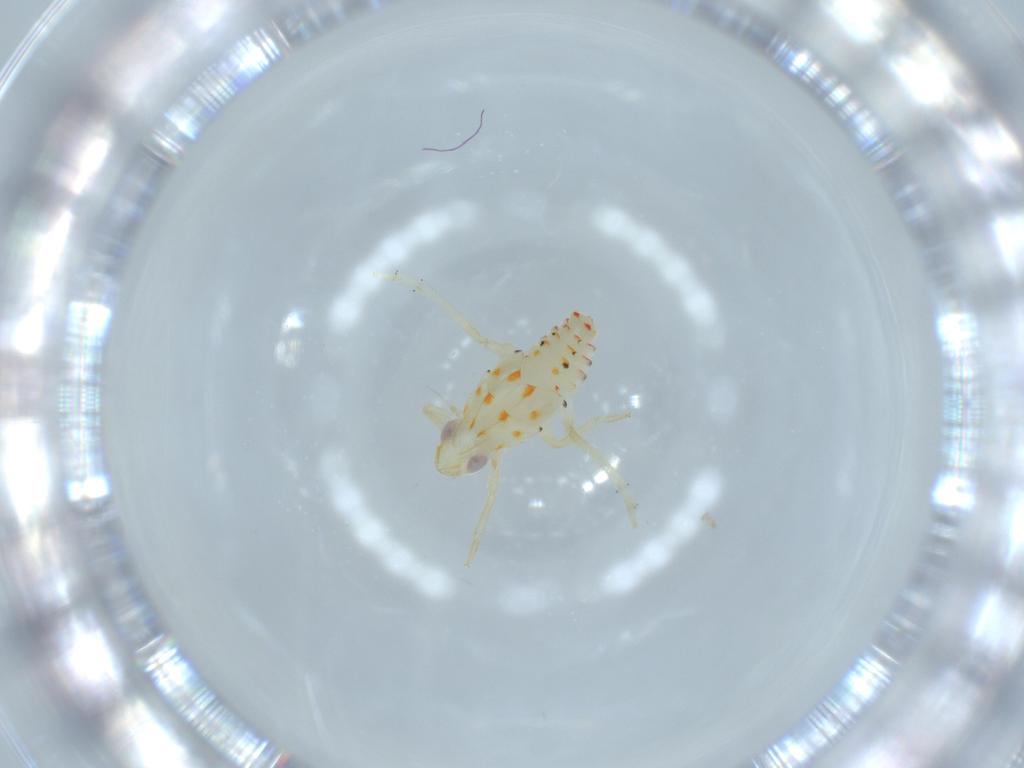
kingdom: Animalia
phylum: Arthropoda
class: Insecta
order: Hemiptera
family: Tropiduchidae
